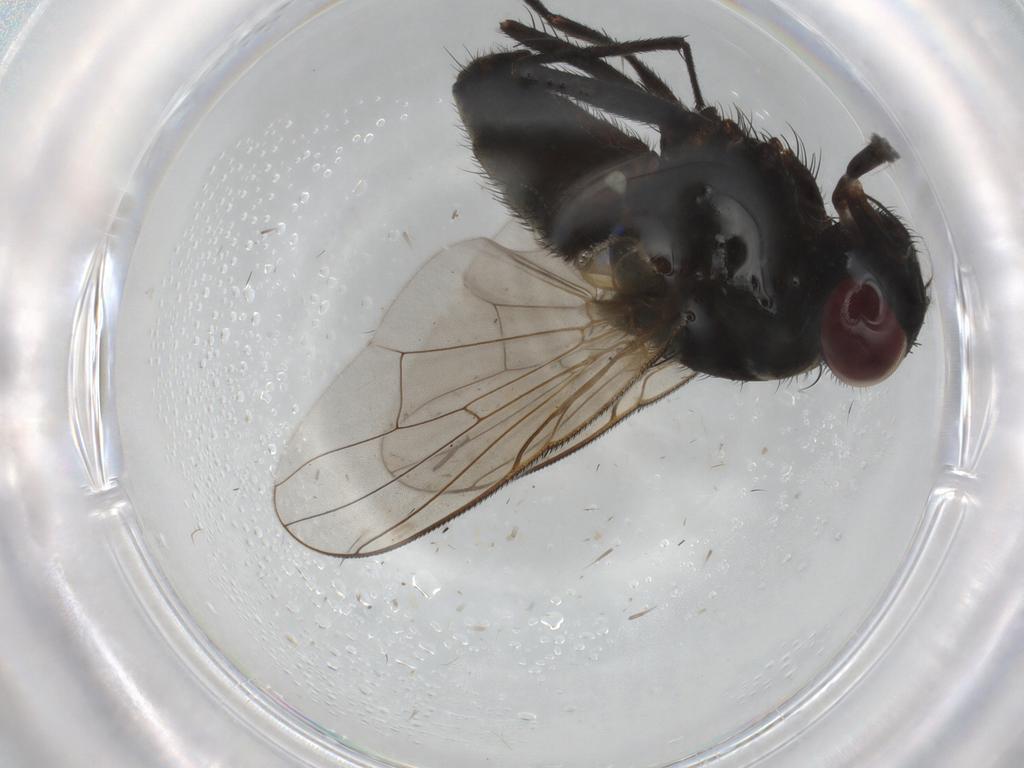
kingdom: Animalia
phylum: Arthropoda
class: Insecta
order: Diptera
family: Muscidae
